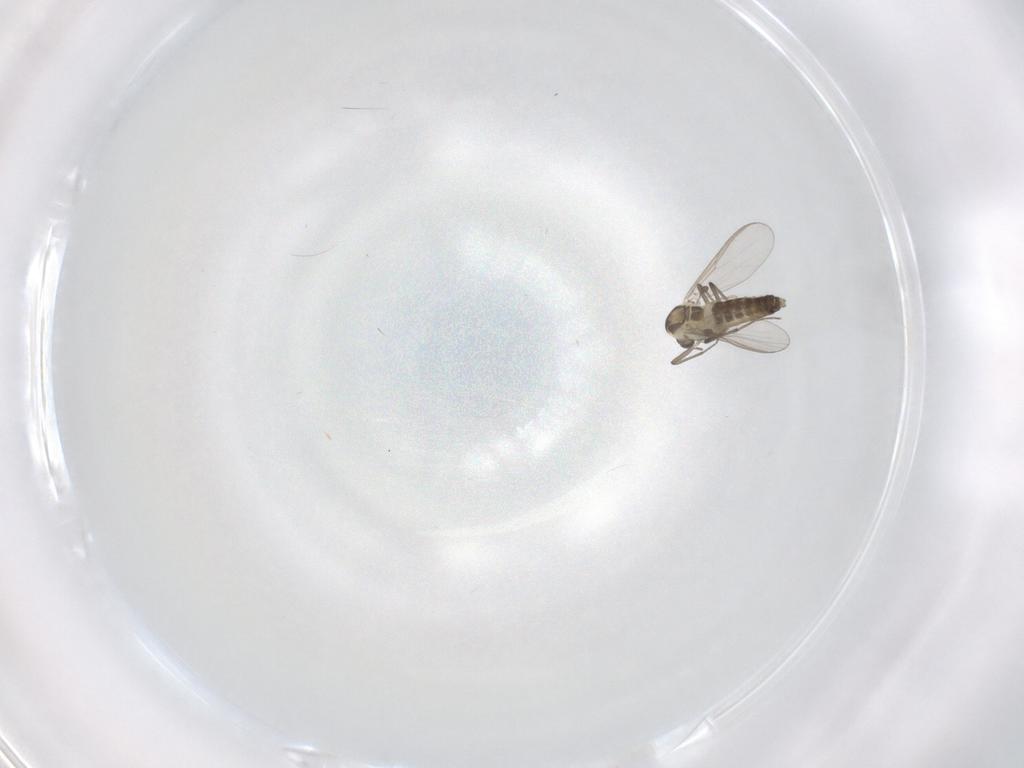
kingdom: Animalia
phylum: Arthropoda
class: Insecta
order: Diptera
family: Chironomidae
